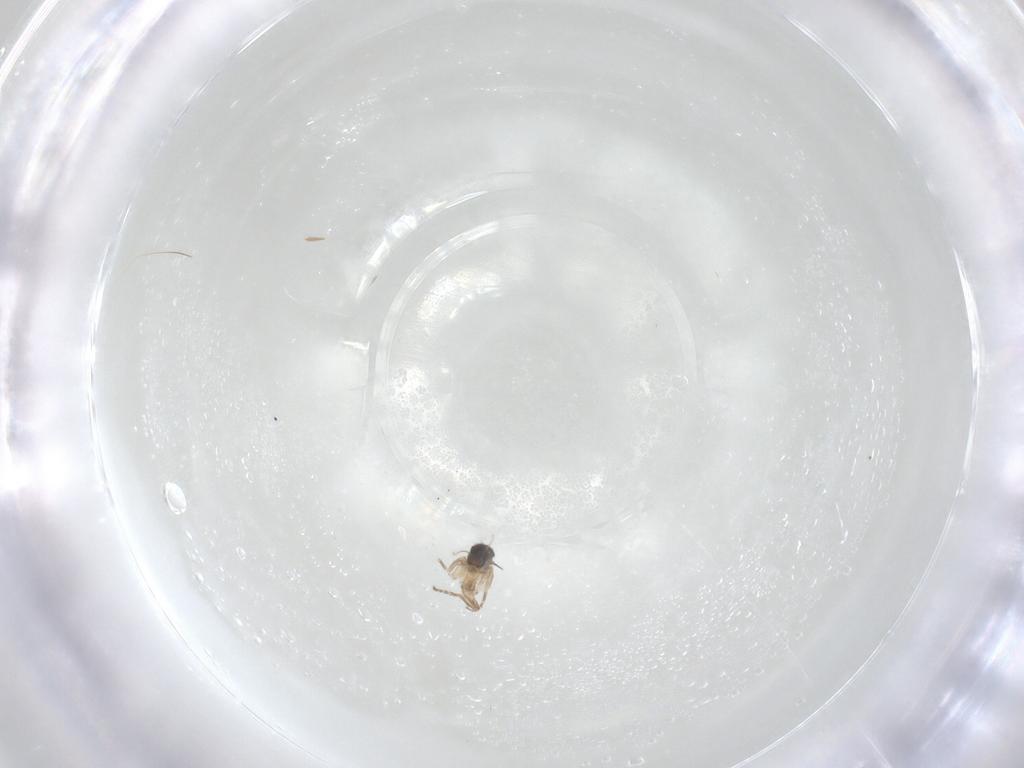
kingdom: Animalia
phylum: Arthropoda
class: Insecta
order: Diptera
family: Phoridae
